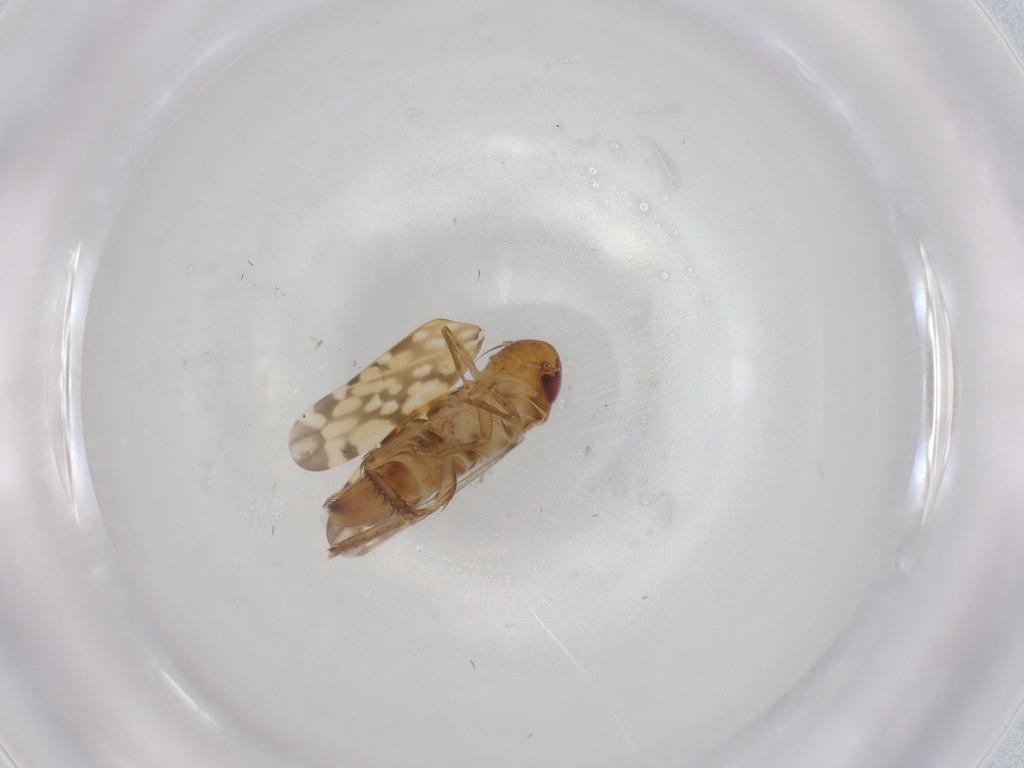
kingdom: Animalia
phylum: Arthropoda
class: Insecta
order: Hemiptera
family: Cicadellidae
